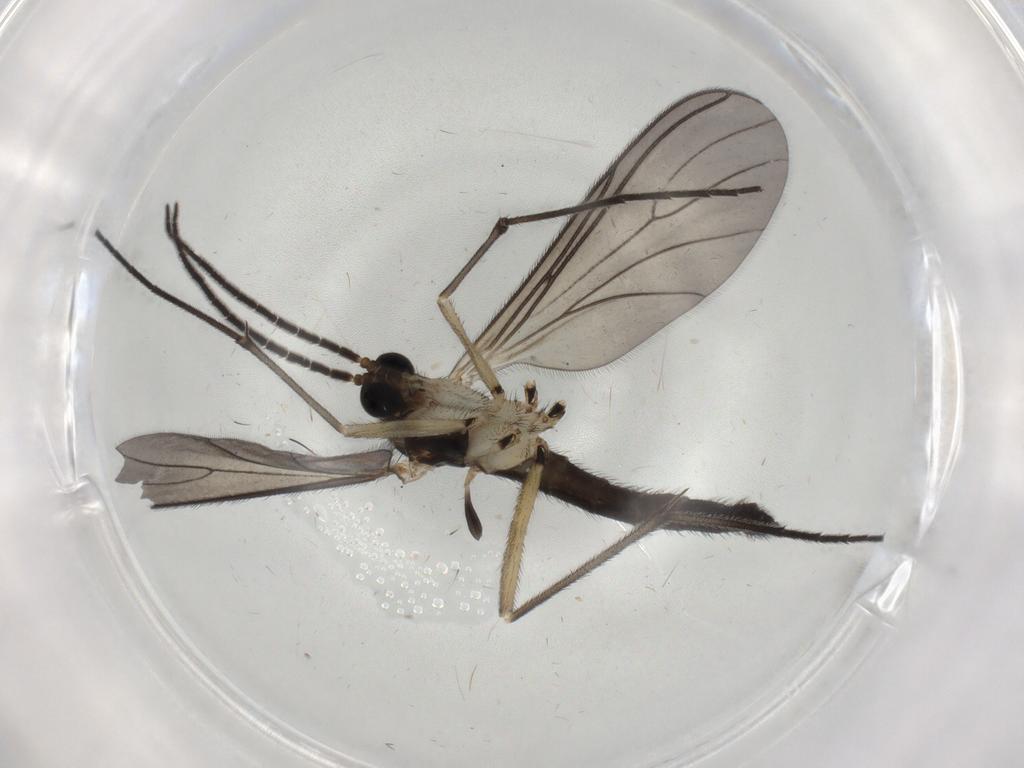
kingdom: Animalia
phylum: Arthropoda
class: Insecta
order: Diptera
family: Sciaridae
